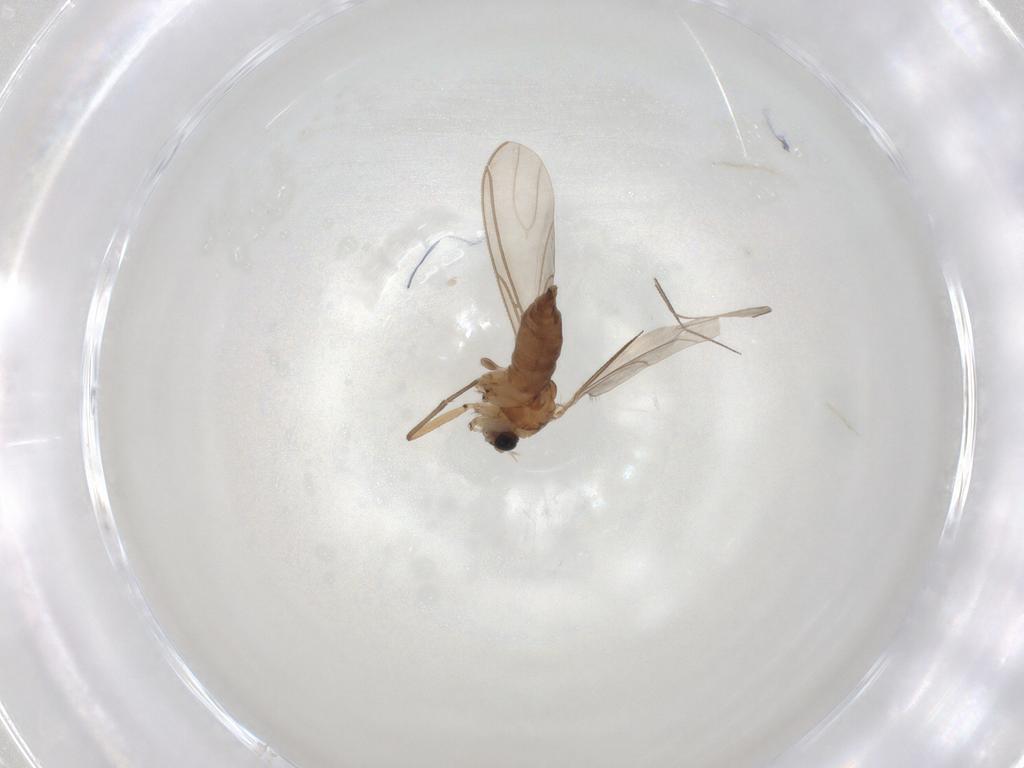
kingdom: Animalia
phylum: Arthropoda
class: Insecta
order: Diptera
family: Sciaridae
